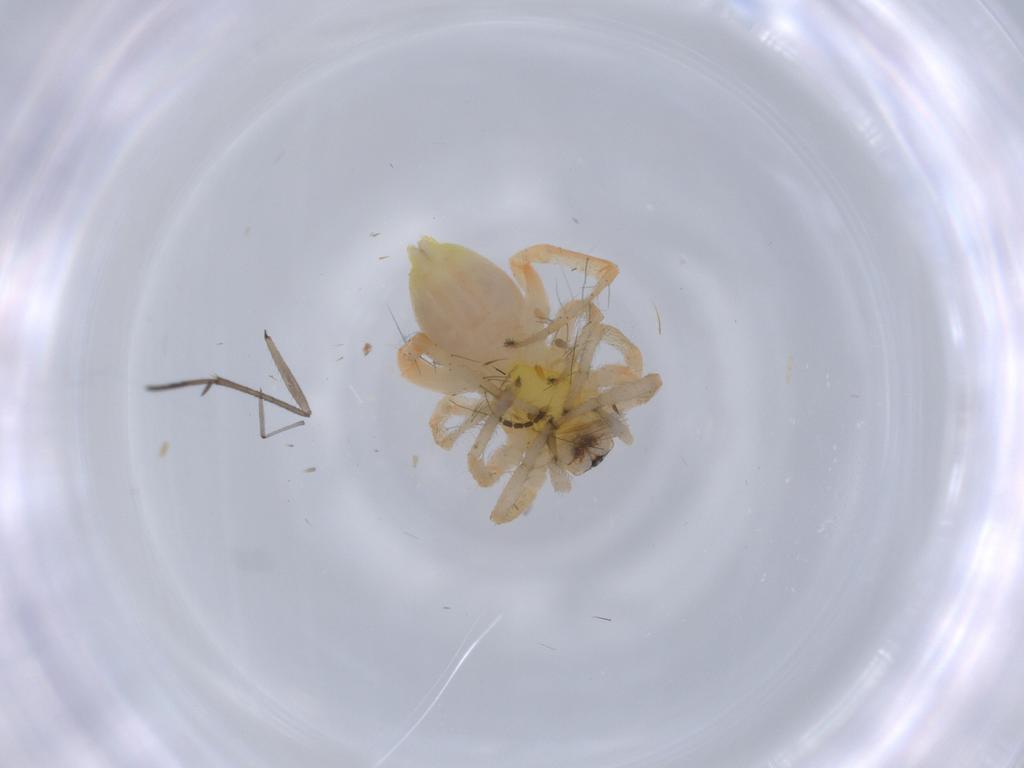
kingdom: Animalia
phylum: Arthropoda
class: Arachnida
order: Araneae
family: Anyphaenidae
